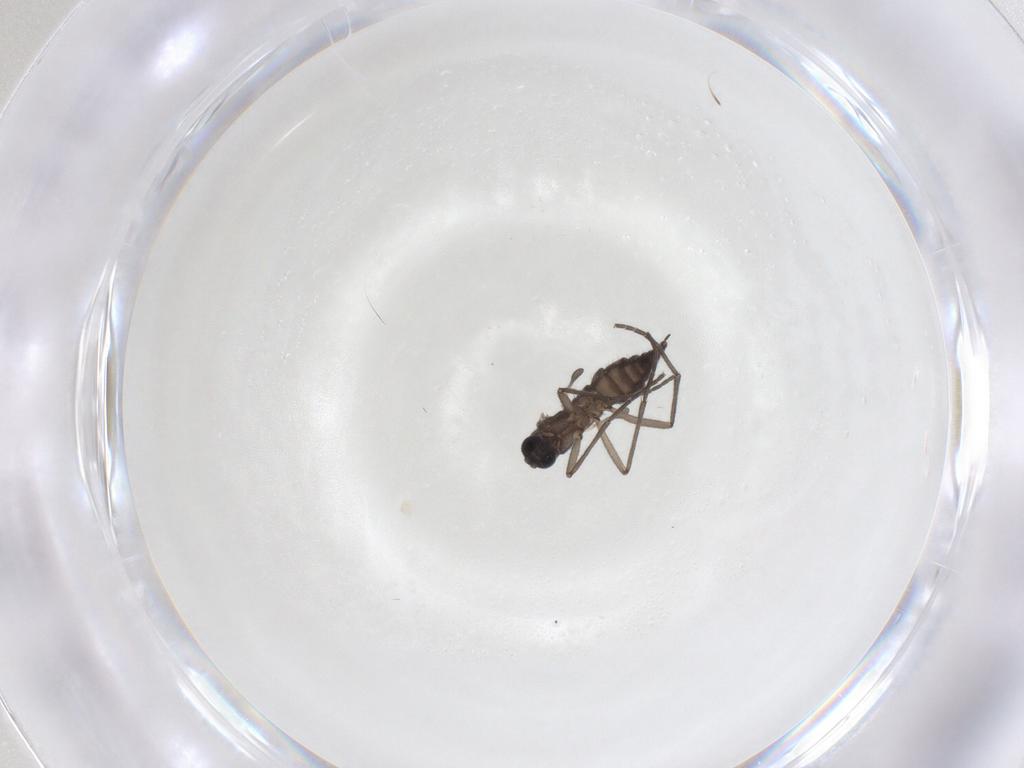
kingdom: Animalia
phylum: Arthropoda
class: Insecta
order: Diptera
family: Sciaridae
